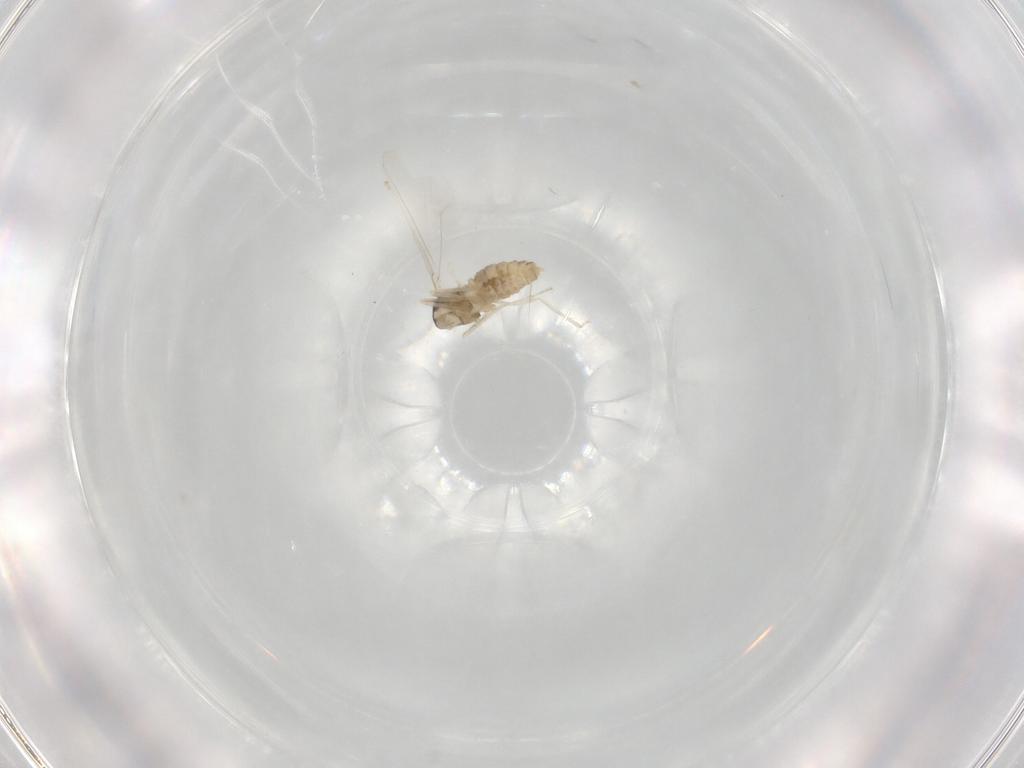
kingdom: Animalia
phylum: Arthropoda
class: Insecta
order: Diptera
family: Cecidomyiidae
